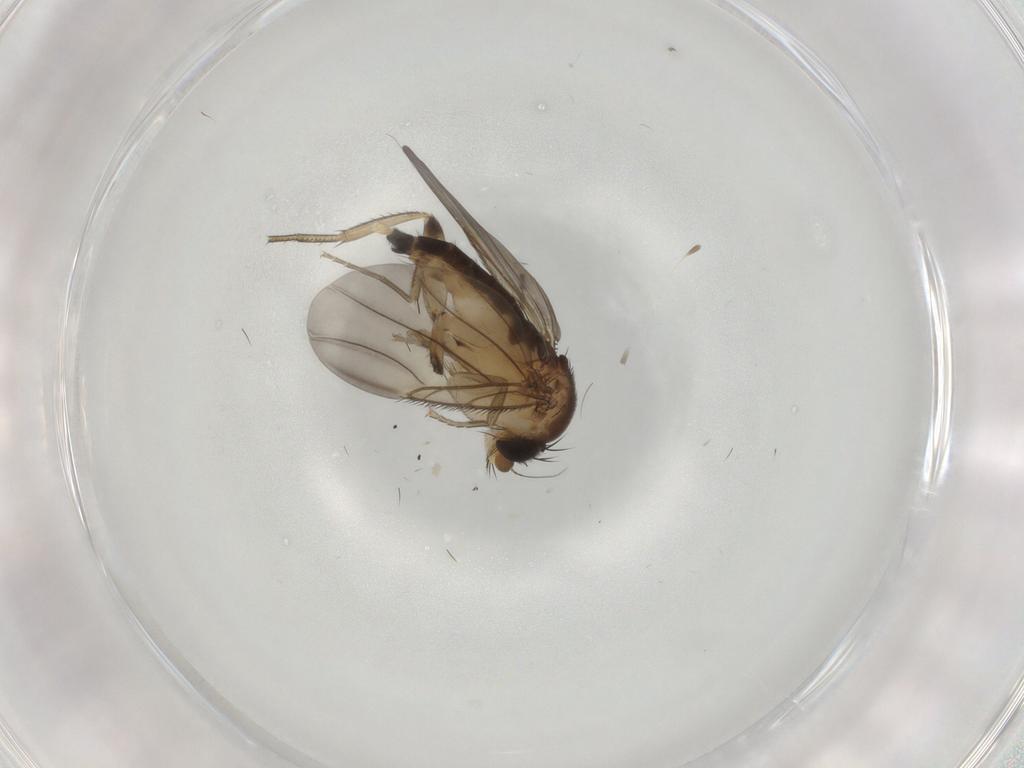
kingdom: Animalia
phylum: Arthropoda
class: Insecta
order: Diptera
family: Phoridae
